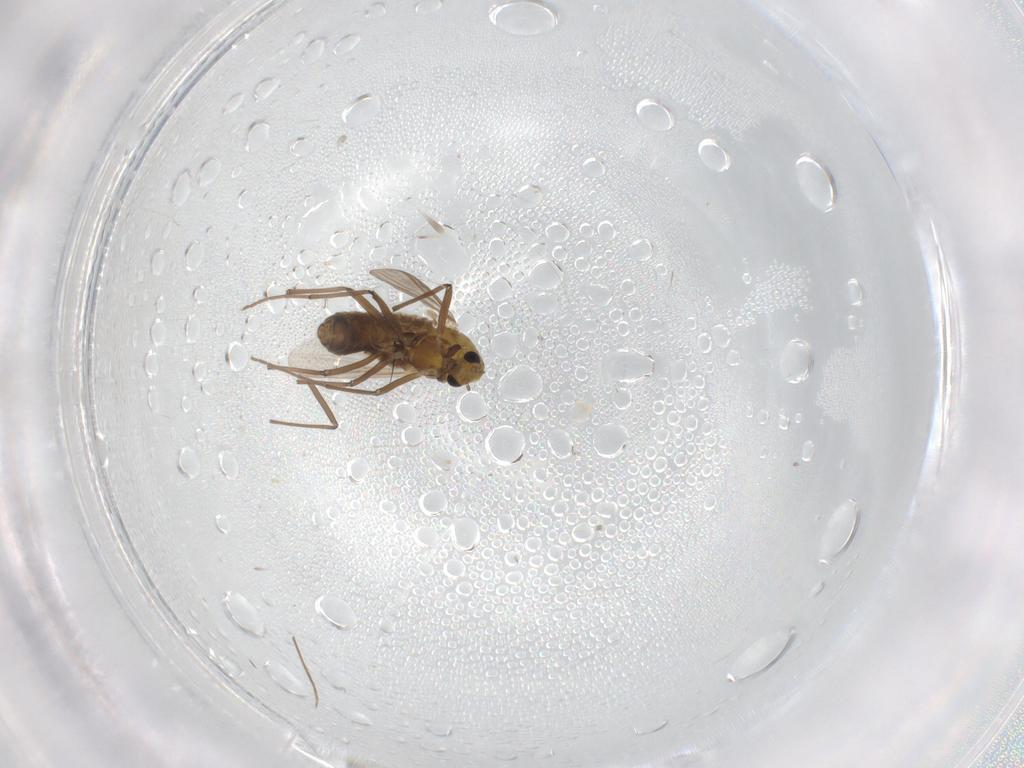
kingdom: Animalia
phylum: Arthropoda
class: Insecta
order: Diptera
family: Chironomidae
